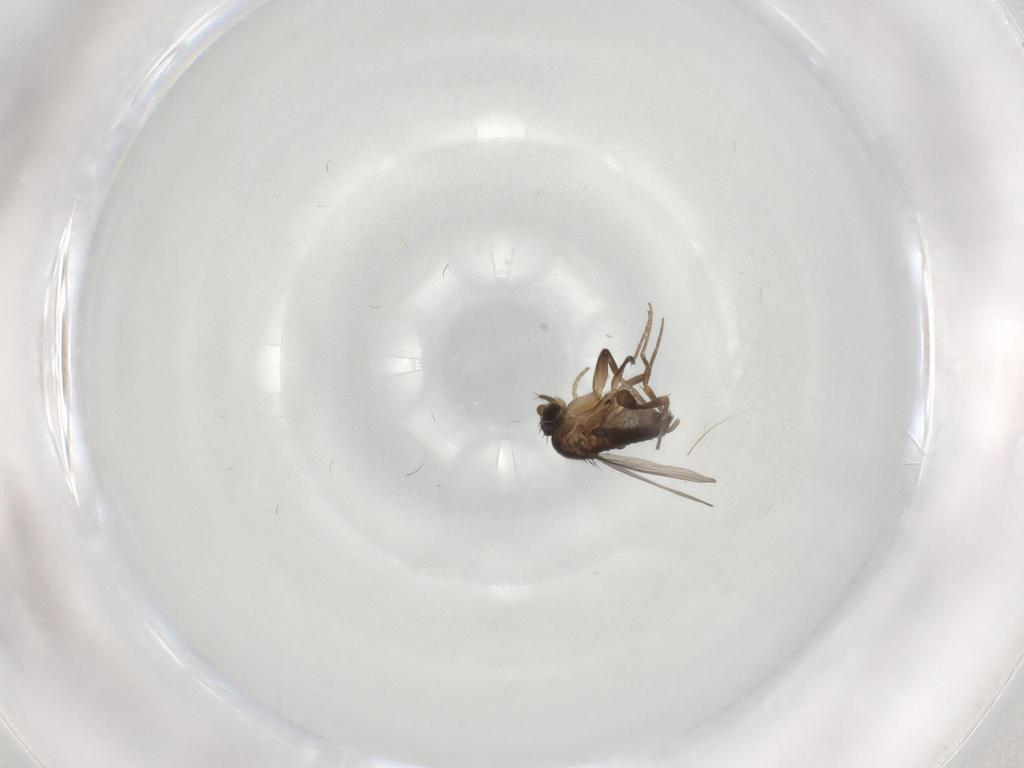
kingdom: Animalia
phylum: Arthropoda
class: Insecta
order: Diptera
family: Phoridae
